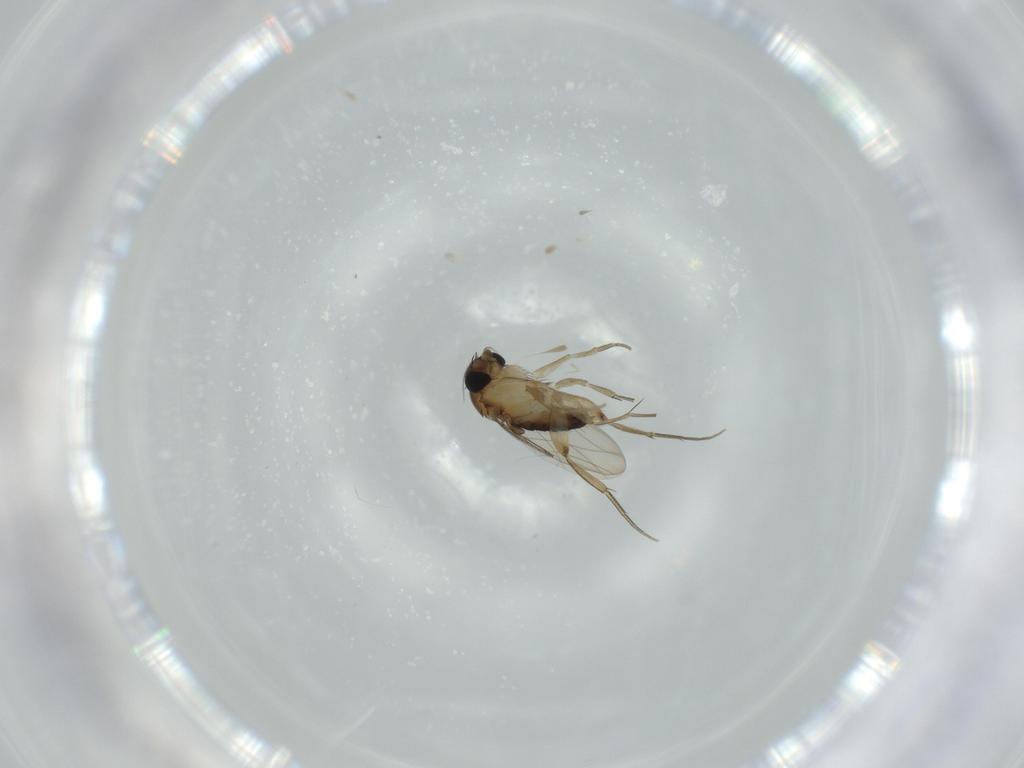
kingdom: Animalia
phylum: Arthropoda
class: Insecta
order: Diptera
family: Phoridae
